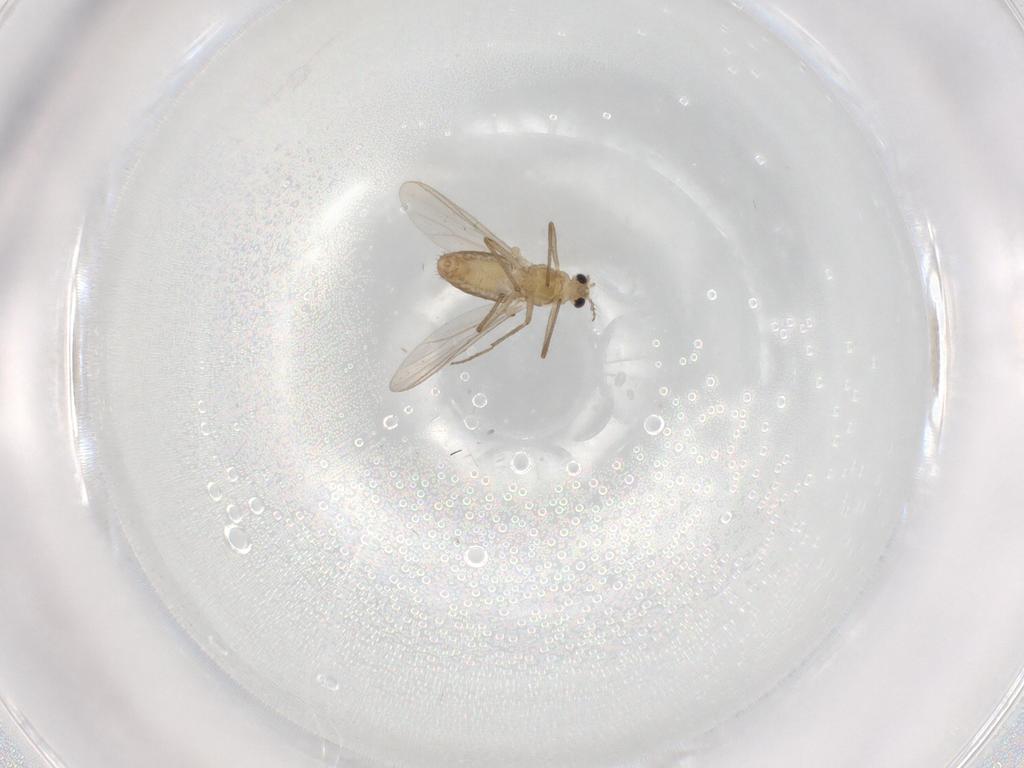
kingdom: Animalia
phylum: Arthropoda
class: Insecta
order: Diptera
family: Chironomidae
